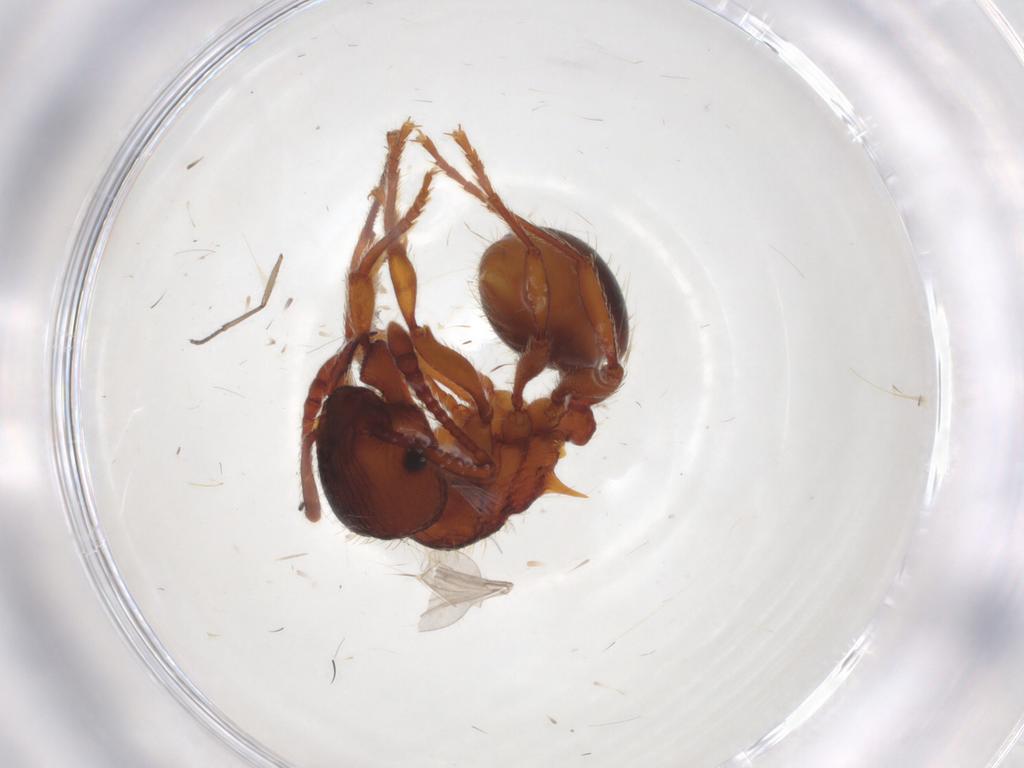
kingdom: Animalia
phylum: Arthropoda
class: Insecta
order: Hymenoptera
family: Formicidae
